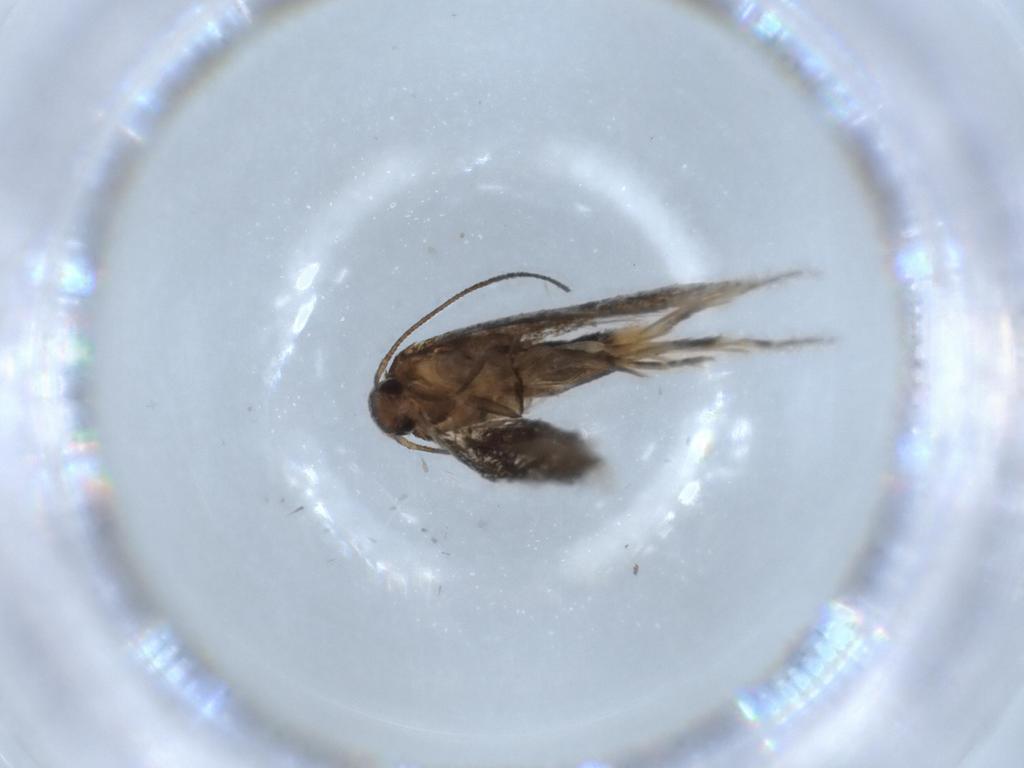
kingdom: Animalia
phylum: Arthropoda
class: Insecta
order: Lepidoptera
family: Elachistidae
